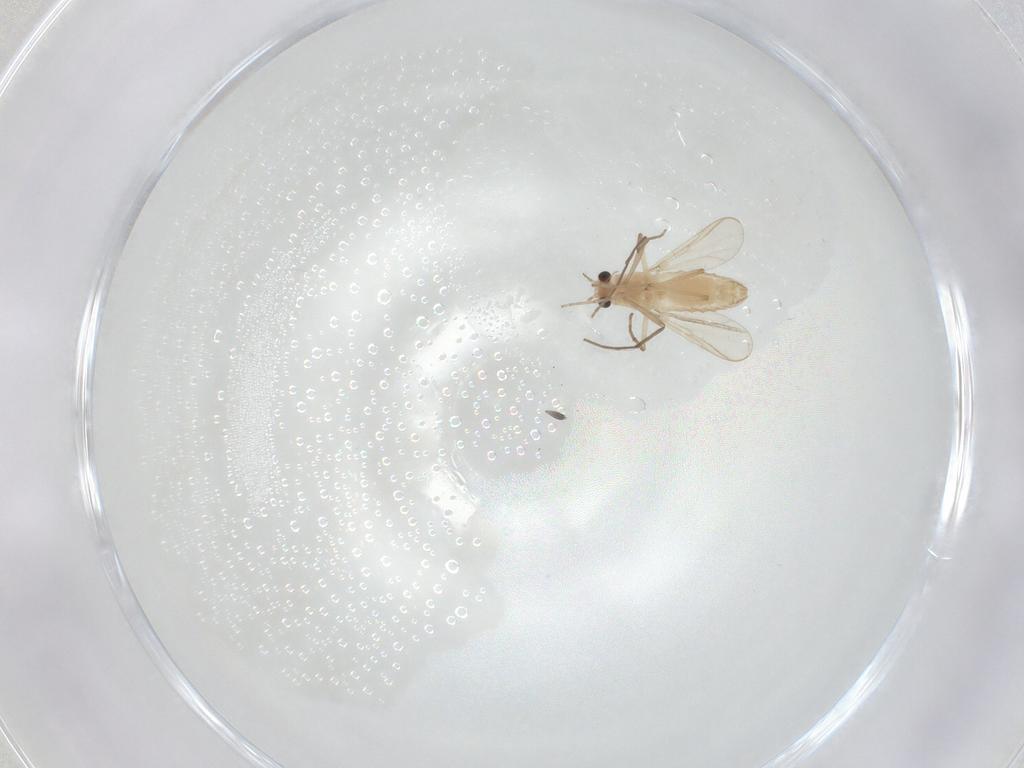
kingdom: Animalia
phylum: Arthropoda
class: Insecta
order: Diptera
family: Chironomidae
